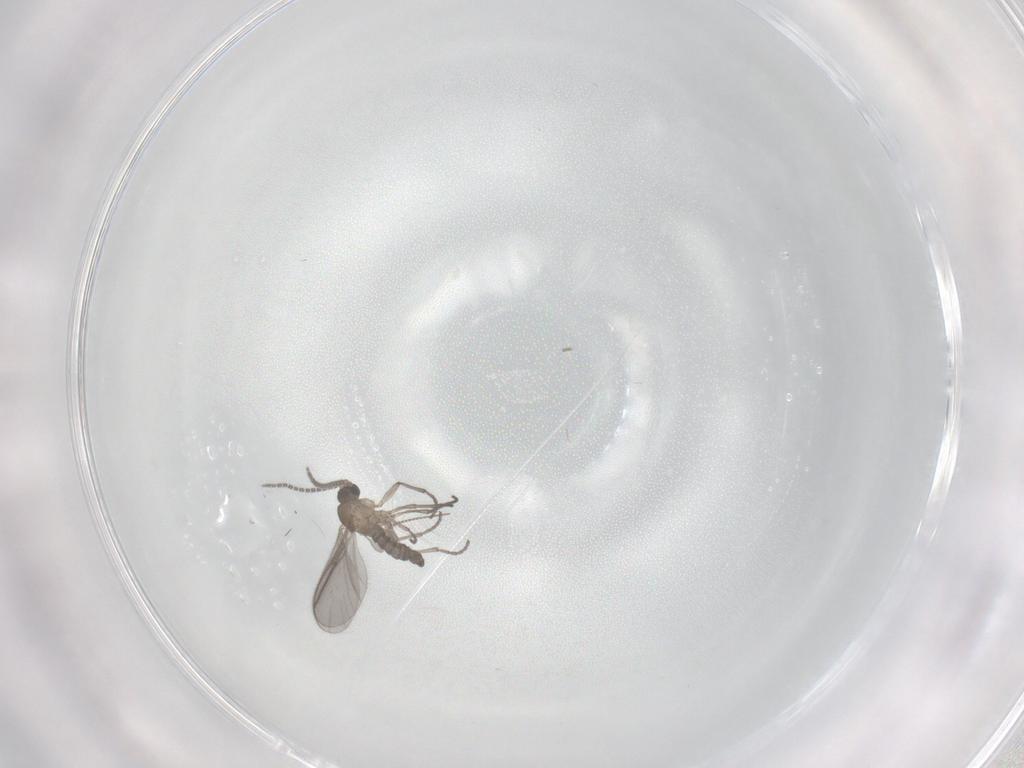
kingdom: Animalia
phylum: Arthropoda
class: Insecta
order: Diptera
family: Sciaridae
